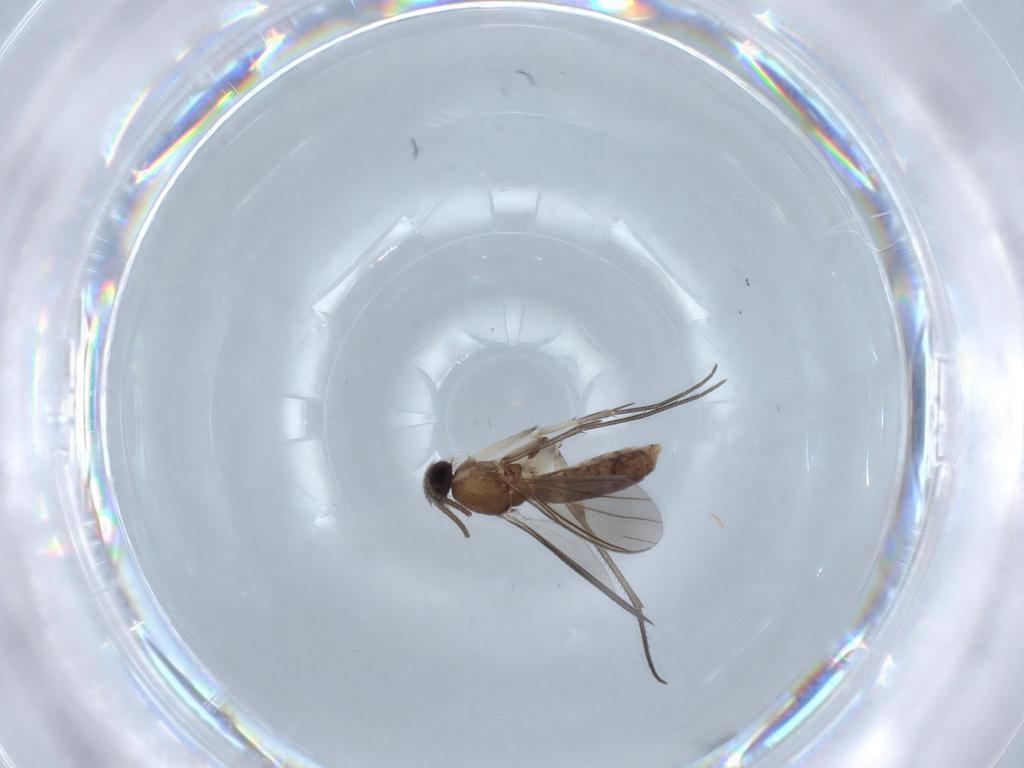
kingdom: Animalia
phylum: Arthropoda
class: Insecta
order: Diptera
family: Mycetophilidae
